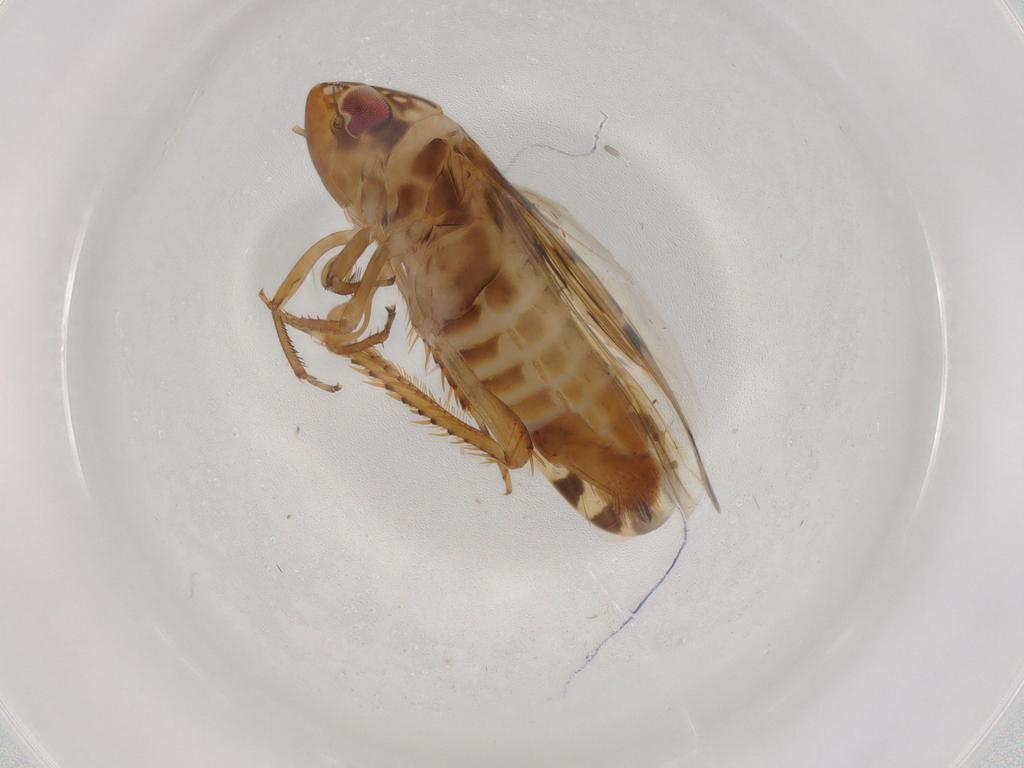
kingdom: Animalia
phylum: Arthropoda
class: Insecta
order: Hemiptera
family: Cicadellidae
